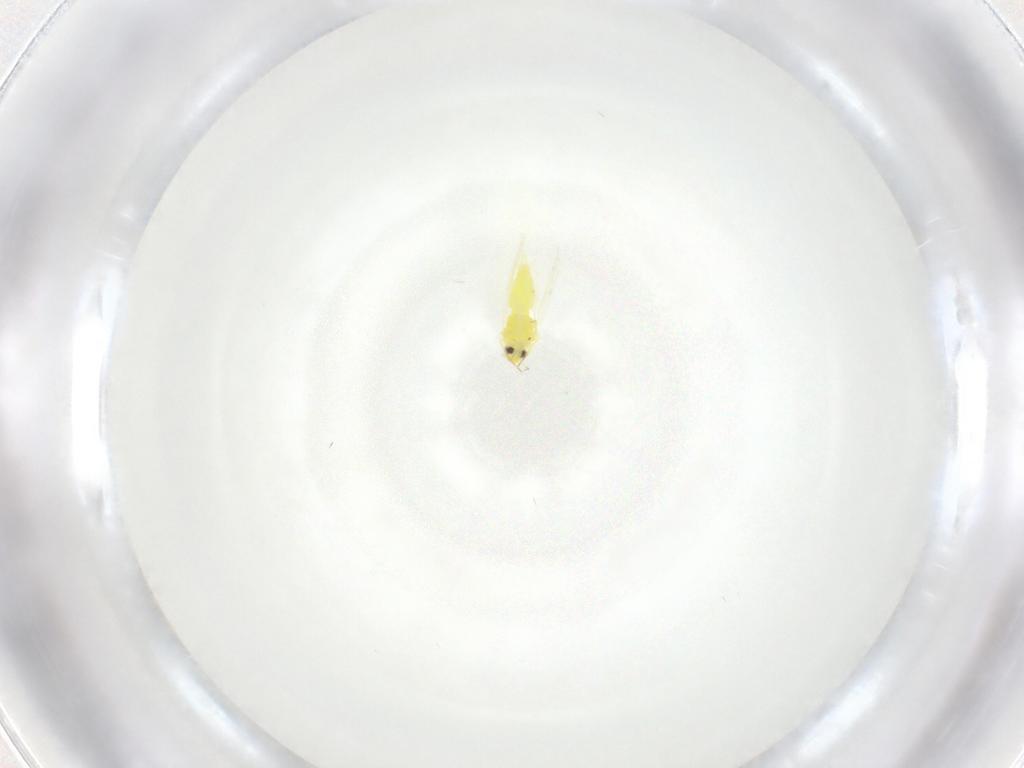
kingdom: Animalia
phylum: Arthropoda
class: Insecta
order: Hemiptera
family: Aleyrodidae
